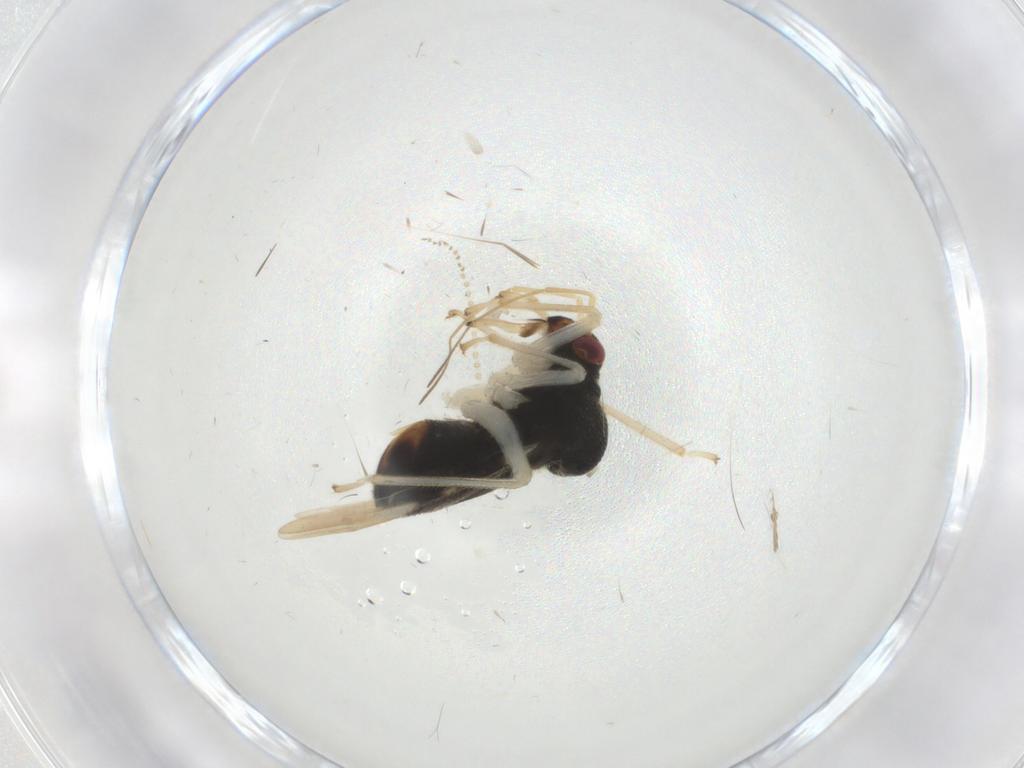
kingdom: Animalia
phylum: Arthropoda
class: Insecta
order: Hemiptera
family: Miridae
